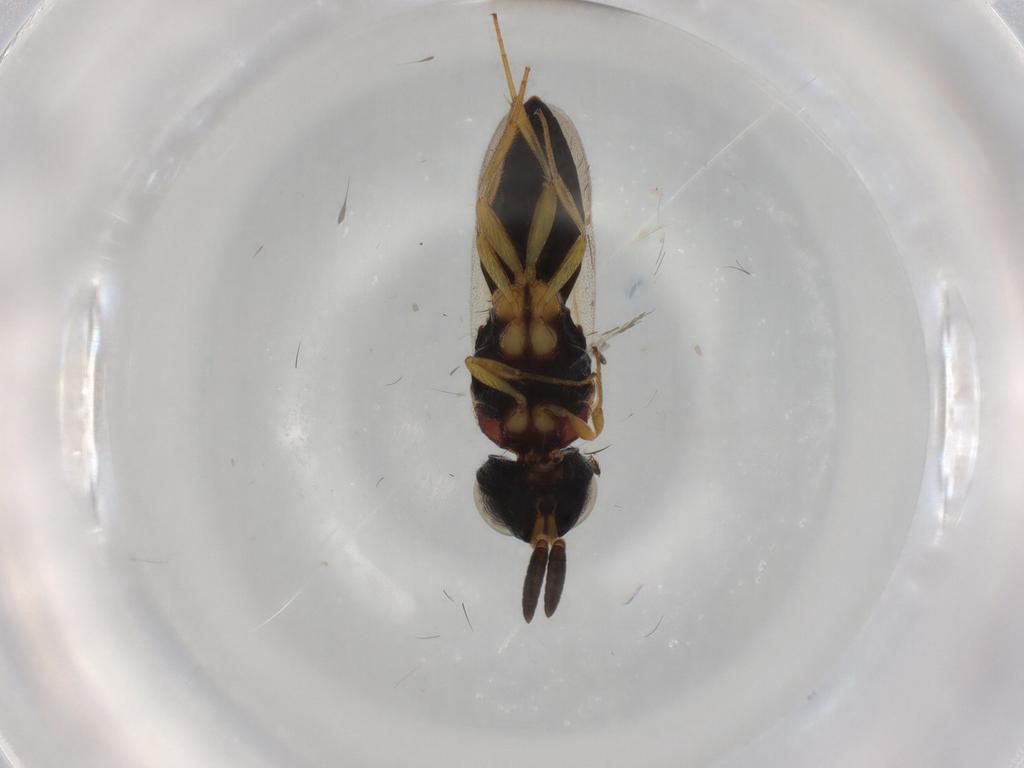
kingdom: Animalia
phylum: Arthropoda
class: Insecta
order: Hymenoptera
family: Scelionidae
